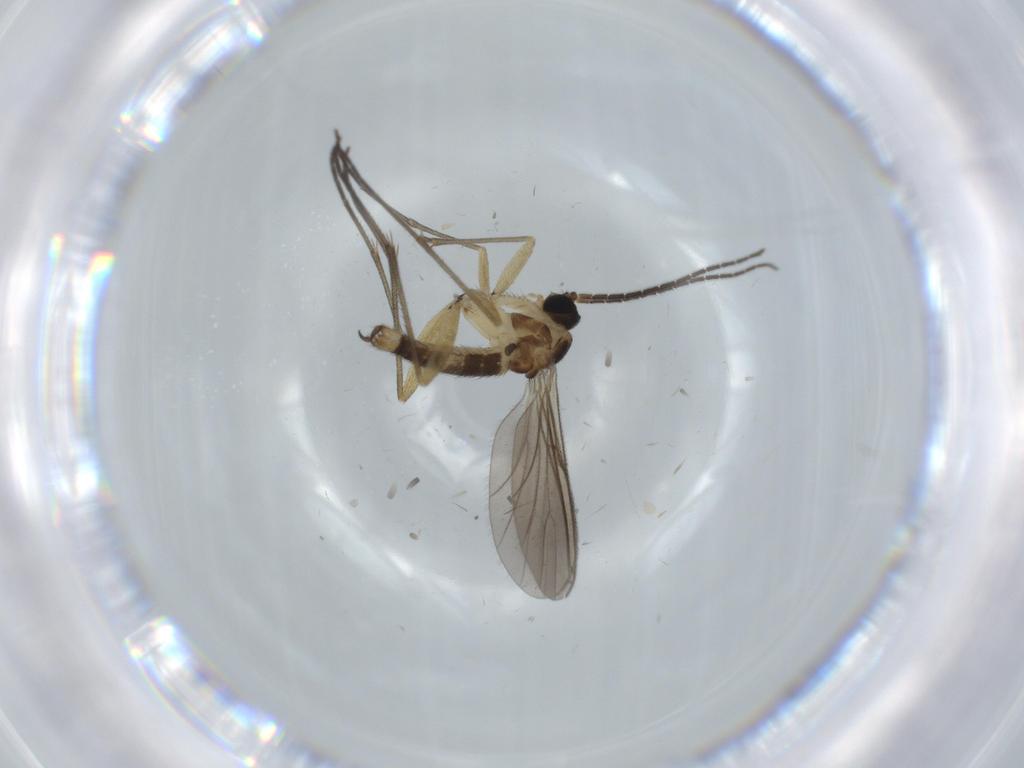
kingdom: Animalia
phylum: Arthropoda
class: Insecta
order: Diptera
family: Sciaridae
